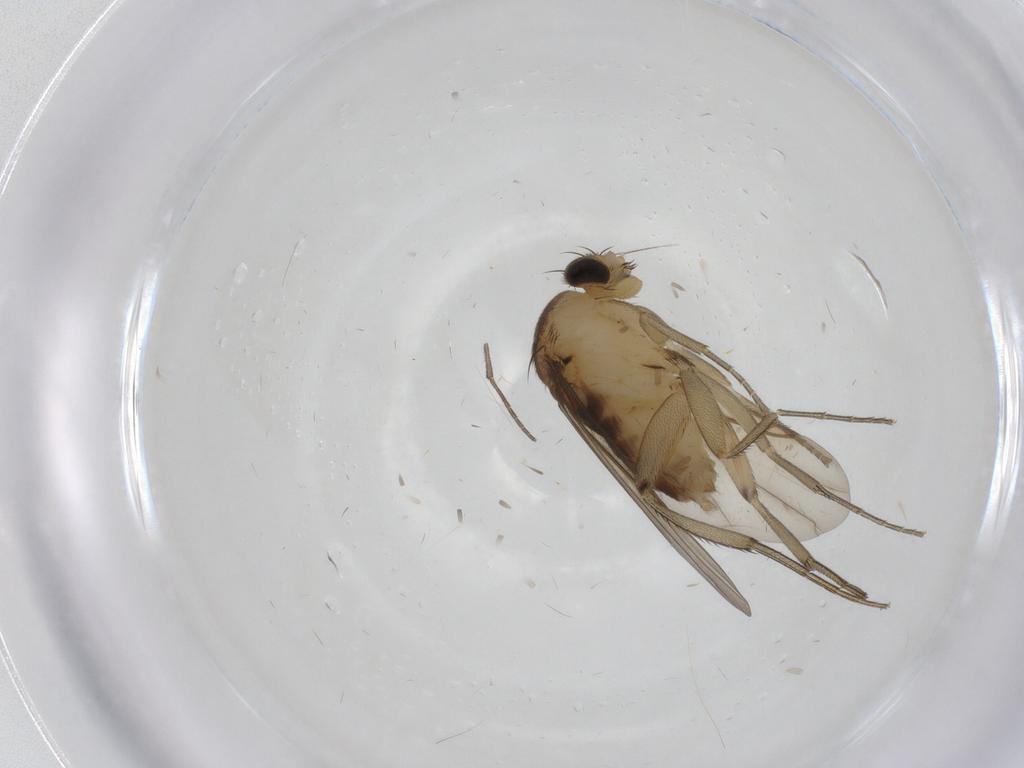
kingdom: Animalia
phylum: Arthropoda
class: Insecta
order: Diptera
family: Phoridae
